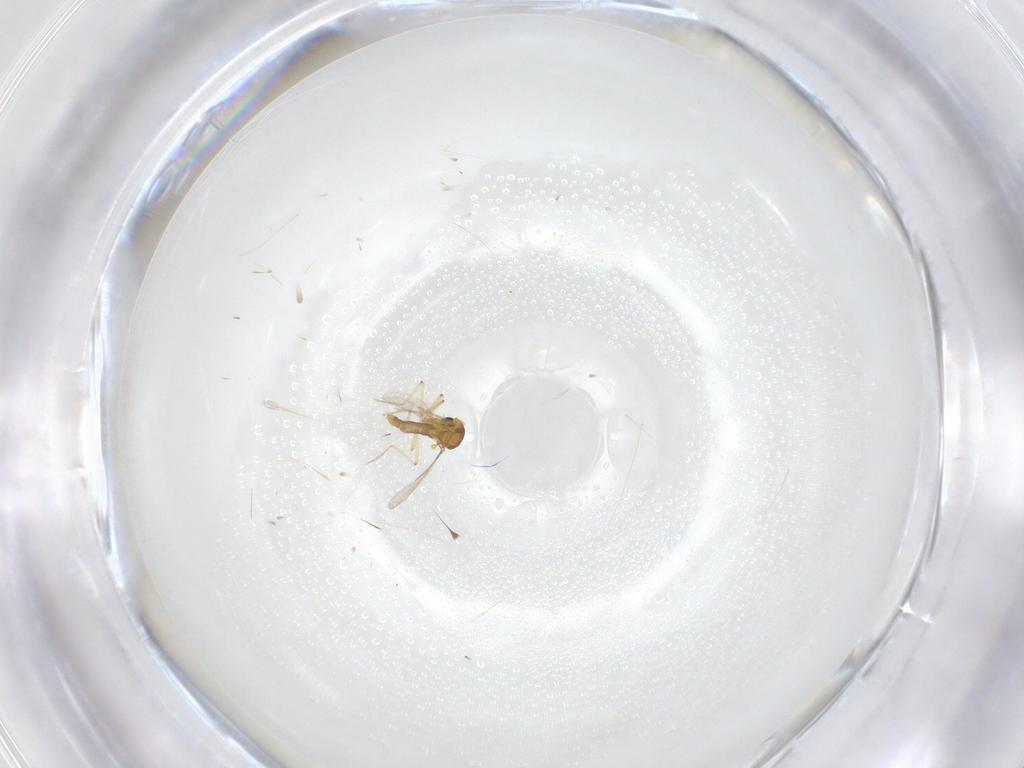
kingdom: Animalia
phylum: Arthropoda
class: Insecta
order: Diptera
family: Ceratopogonidae
